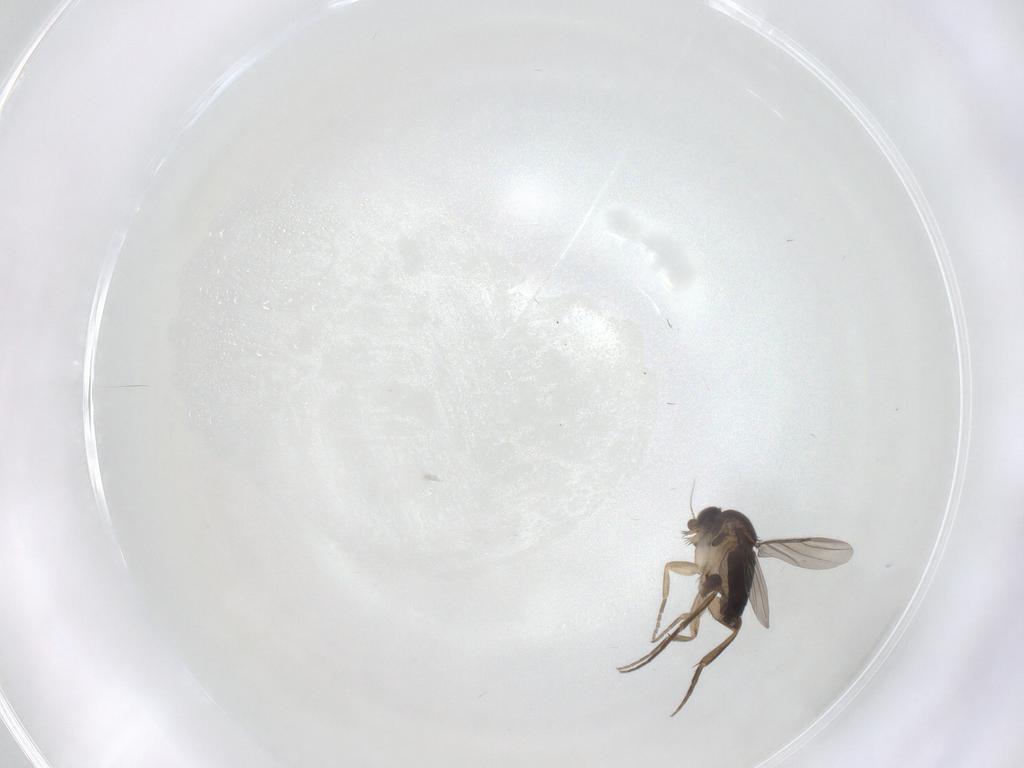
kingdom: Animalia
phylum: Arthropoda
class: Insecta
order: Diptera
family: Phoridae
